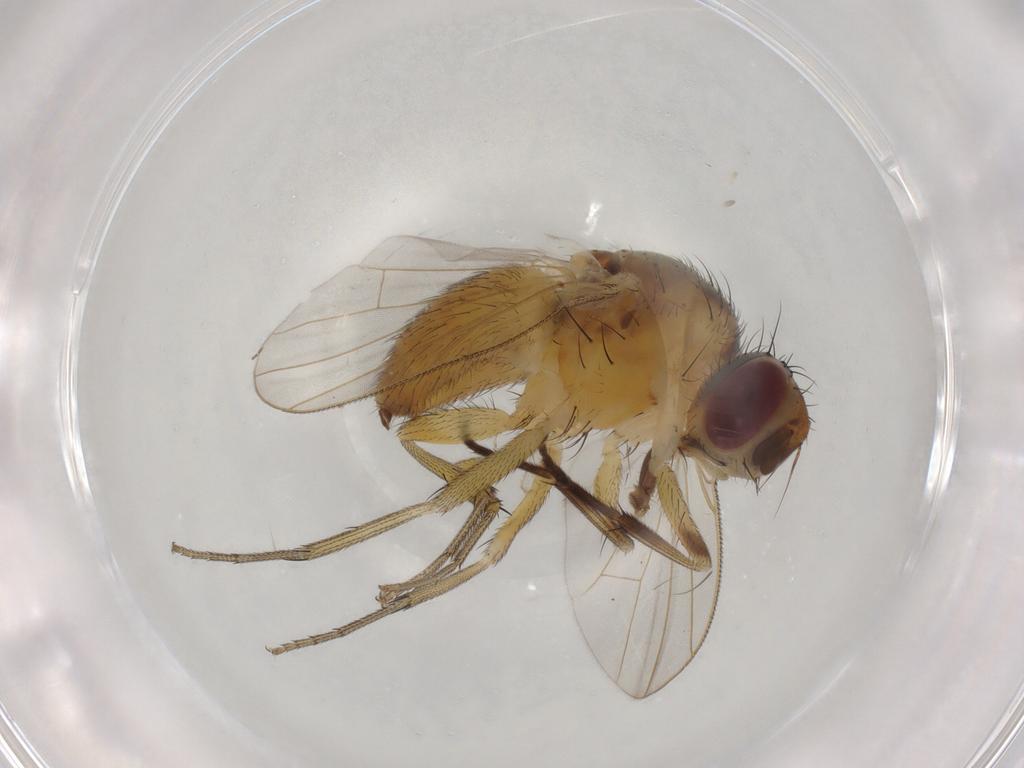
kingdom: Animalia
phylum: Arthropoda
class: Insecta
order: Diptera
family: Muscidae
